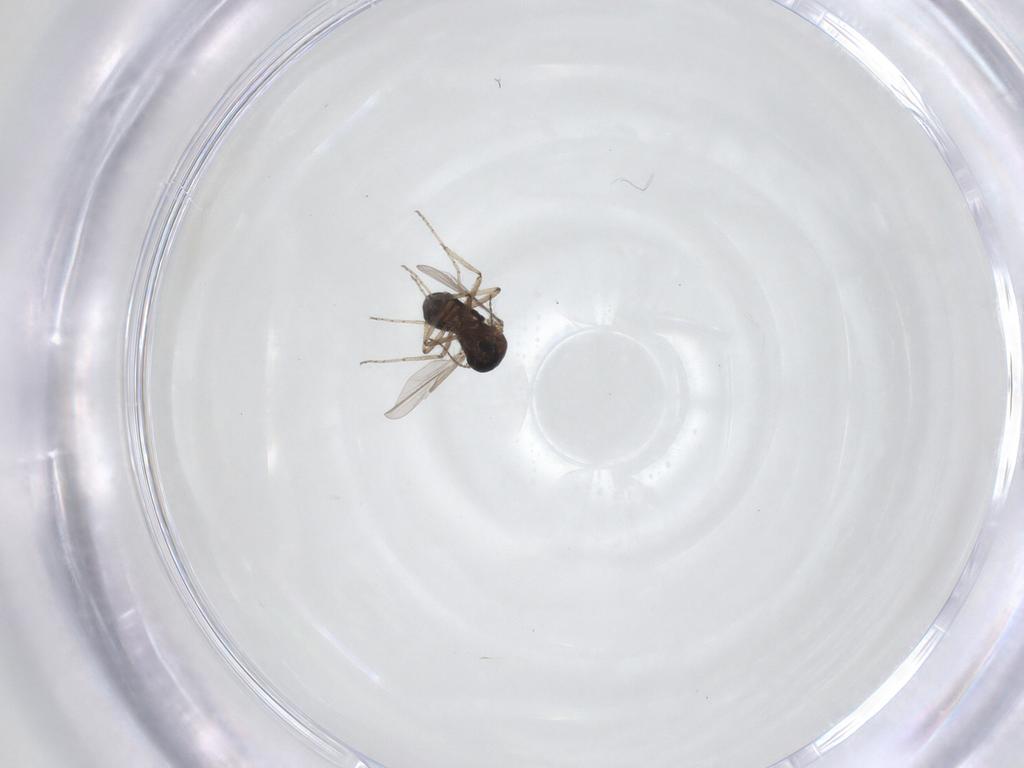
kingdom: Animalia
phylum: Arthropoda
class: Insecta
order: Diptera
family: Ceratopogonidae
